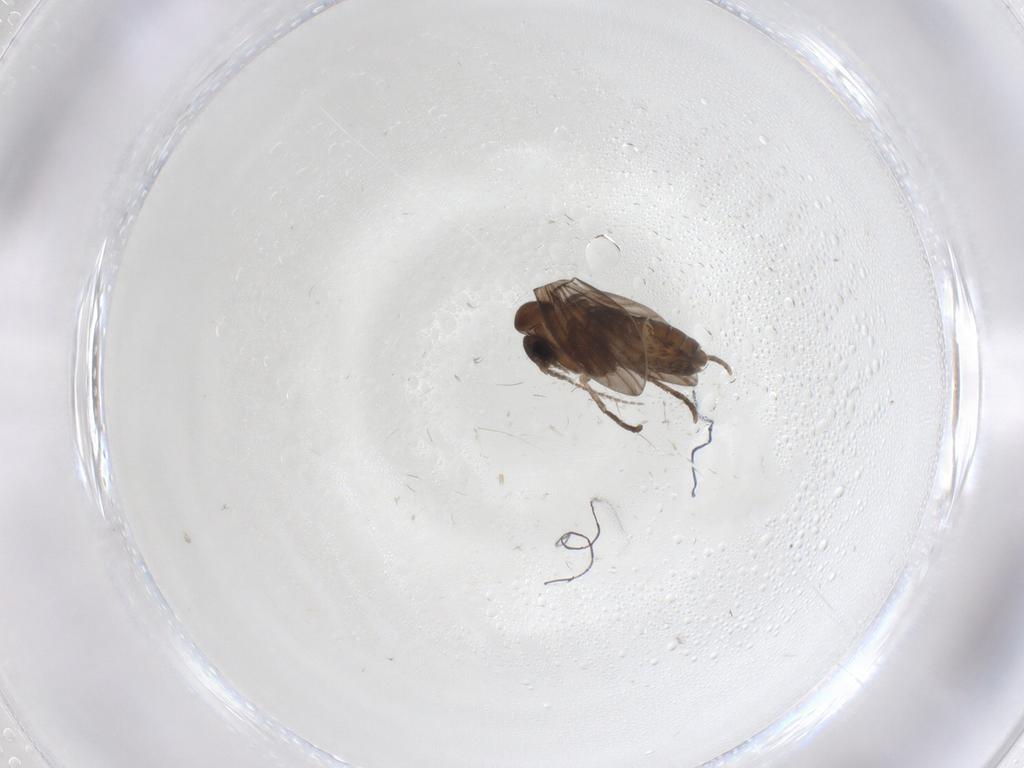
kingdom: Animalia
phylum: Arthropoda
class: Insecta
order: Diptera
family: Psychodidae
